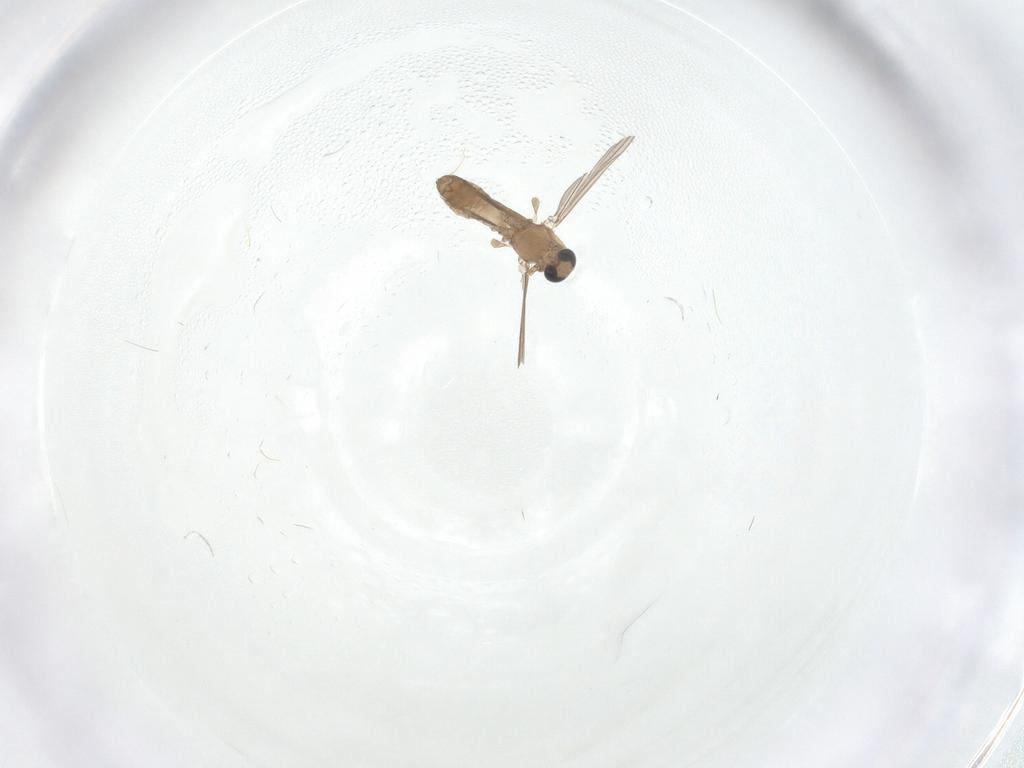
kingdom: Animalia
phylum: Arthropoda
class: Insecta
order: Diptera
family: Chironomidae
